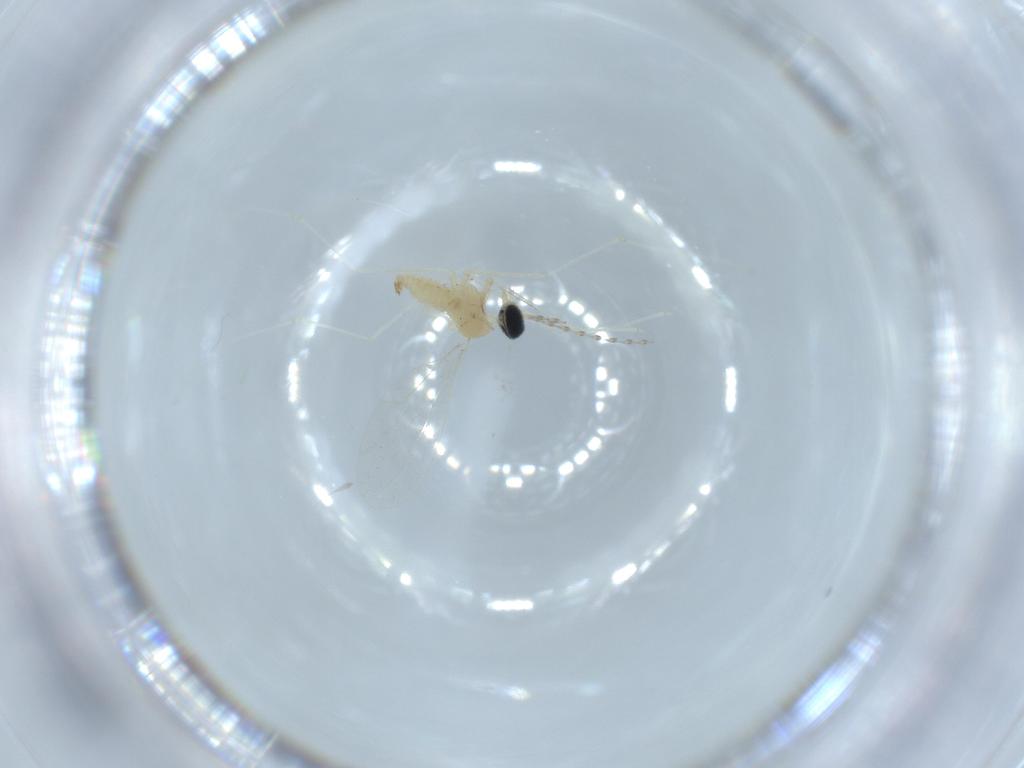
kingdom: Animalia
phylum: Arthropoda
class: Insecta
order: Diptera
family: Cecidomyiidae
